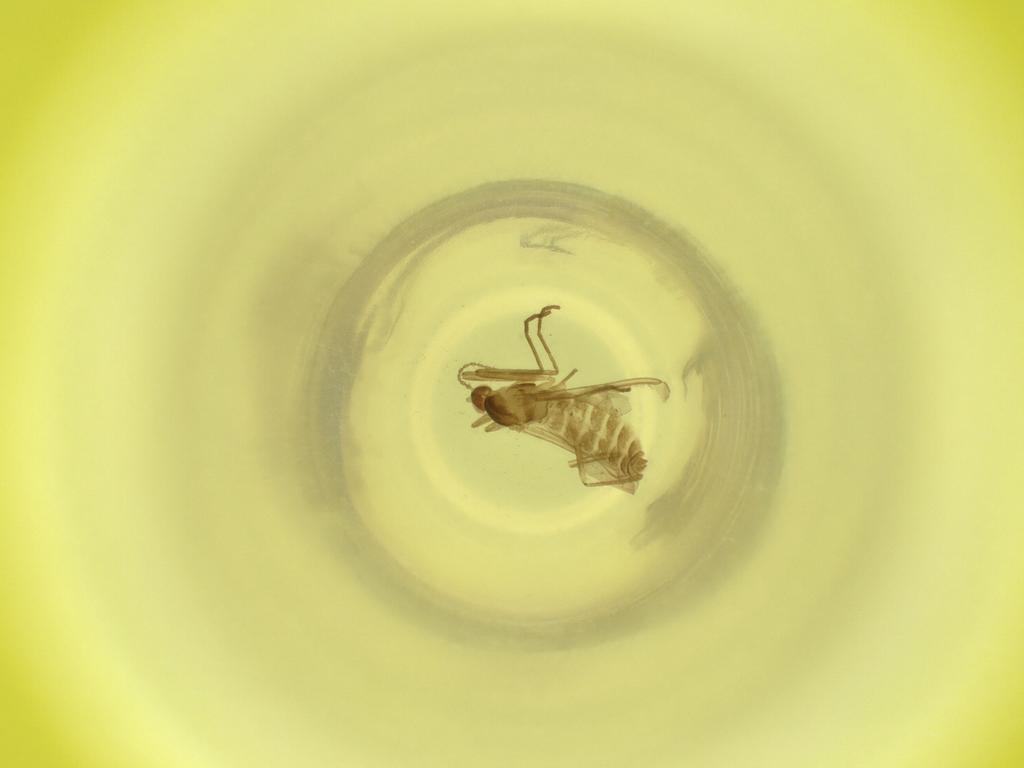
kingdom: Animalia
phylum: Arthropoda
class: Insecta
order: Diptera
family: Cecidomyiidae
